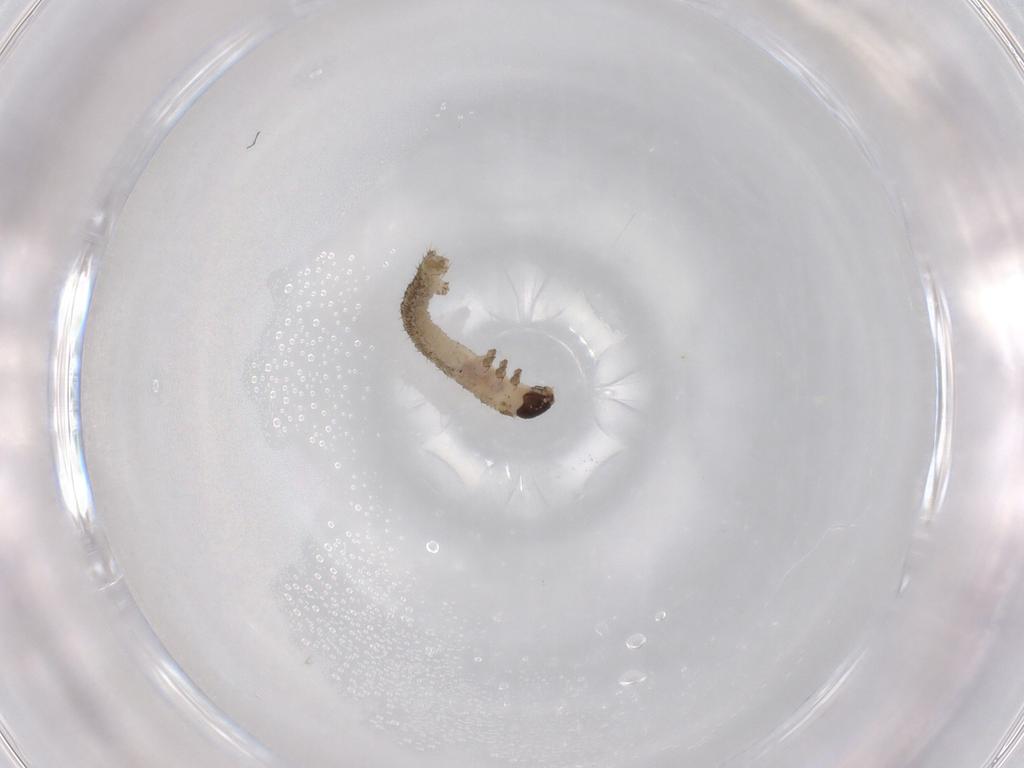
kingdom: Animalia
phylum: Arthropoda
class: Insecta
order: Lepidoptera
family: Geometridae
